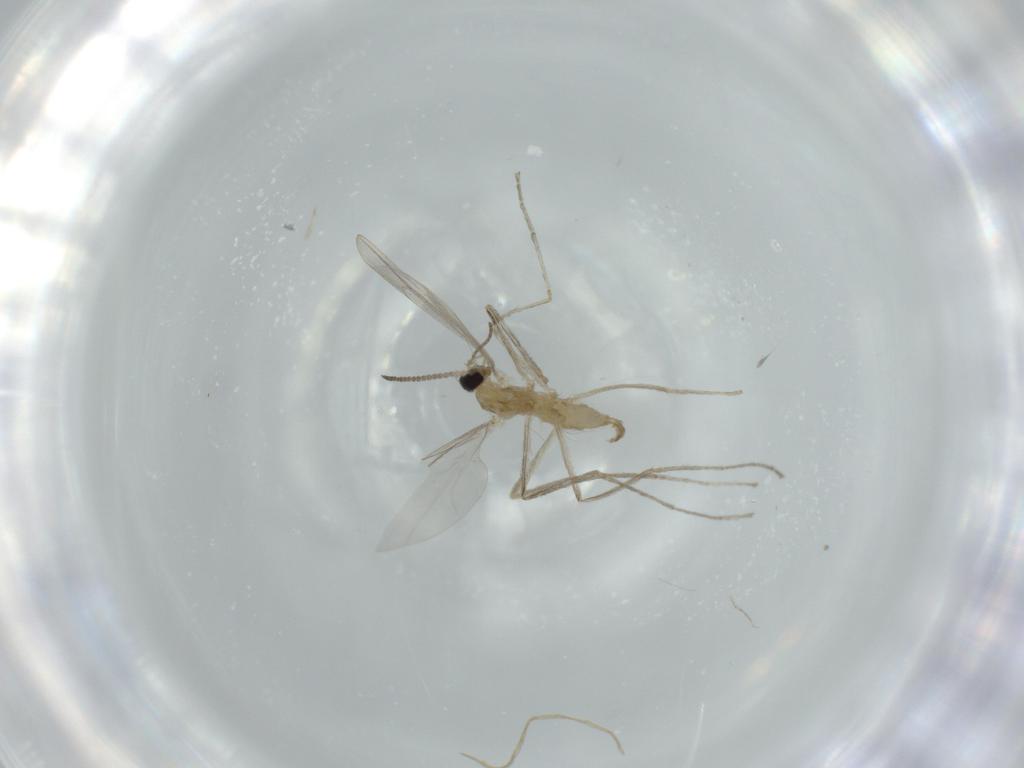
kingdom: Animalia
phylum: Arthropoda
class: Insecta
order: Diptera
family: Cecidomyiidae
